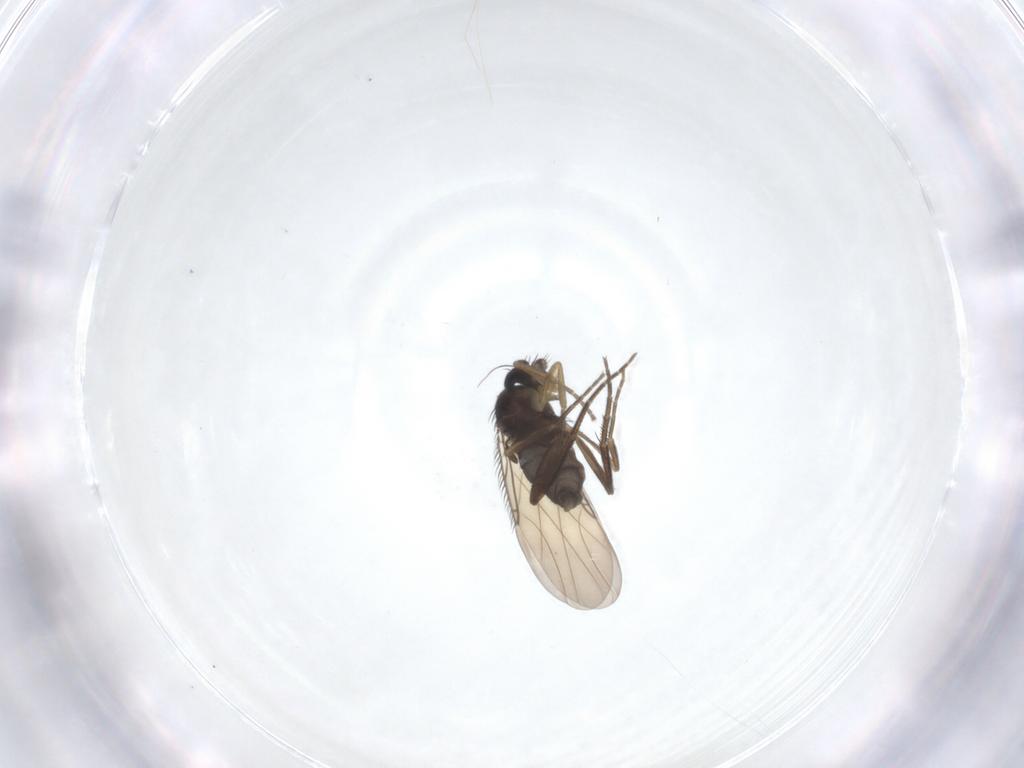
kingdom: Animalia
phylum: Arthropoda
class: Insecta
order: Diptera
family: Phoridae
